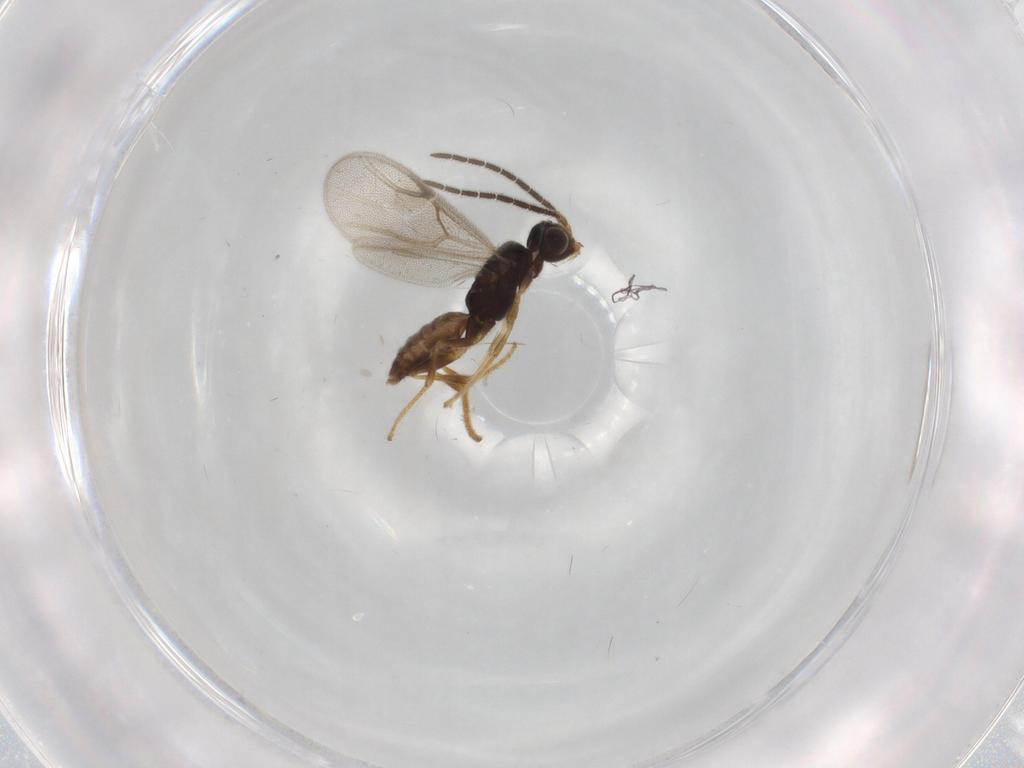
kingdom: Animalia
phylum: Arthropoda
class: Insecta
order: Hymenoptera
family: Dryinidae
